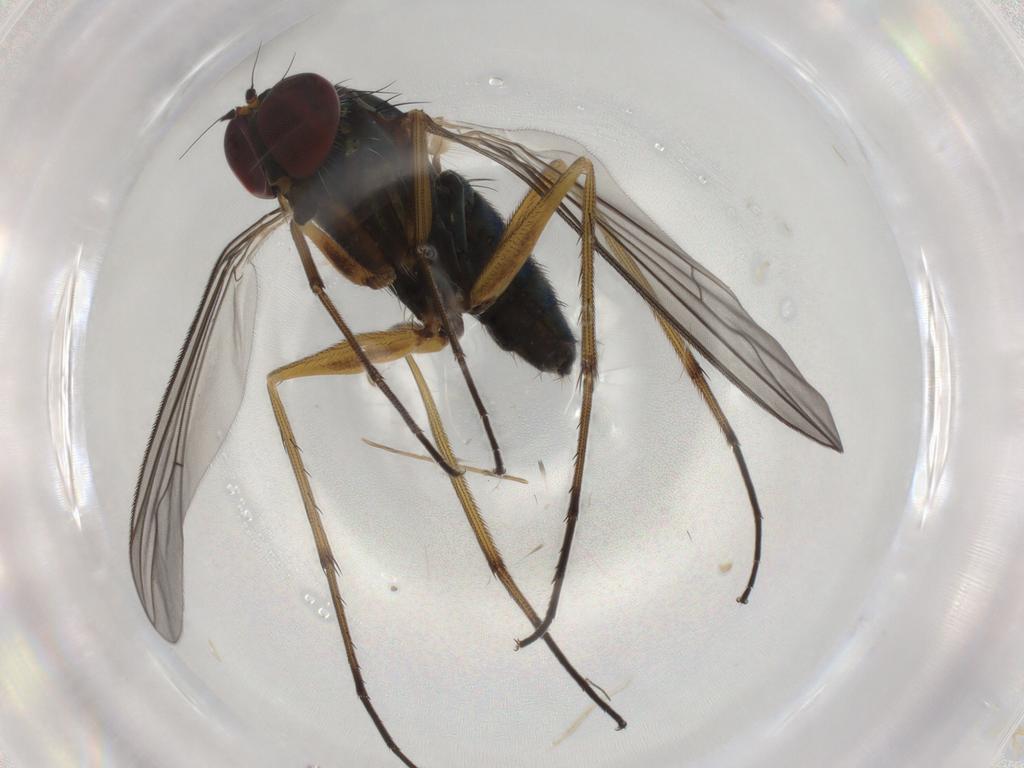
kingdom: Animalia
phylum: Arthropoda
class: Insecta
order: Diptera
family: Chironomidae
